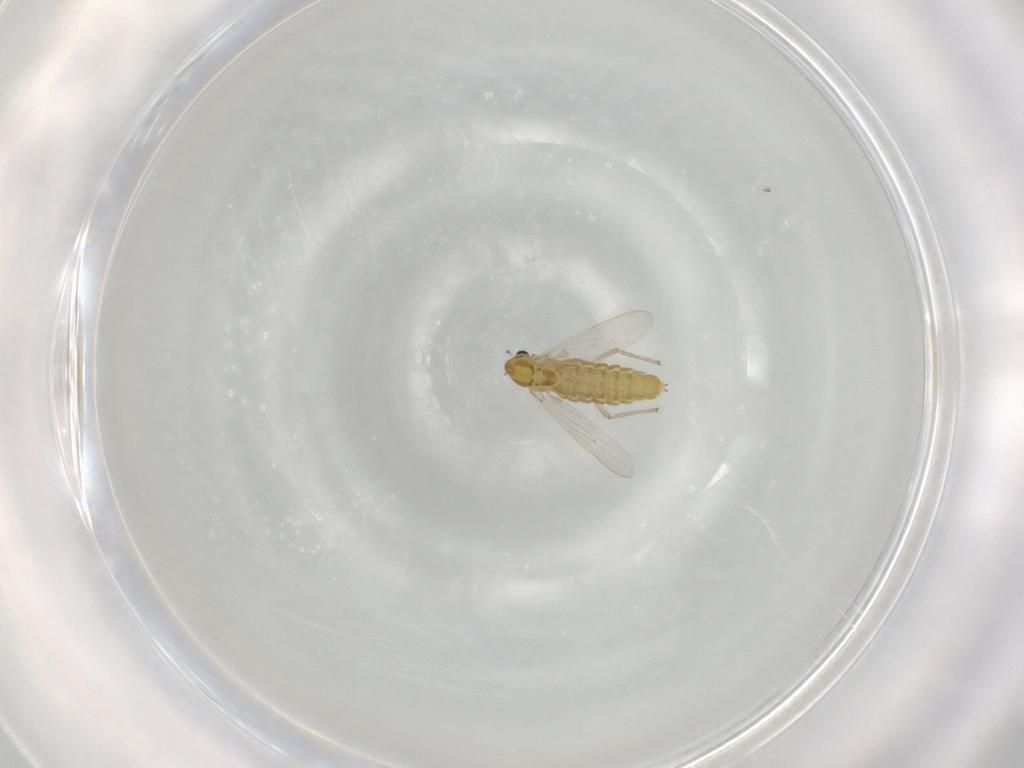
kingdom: Animalia
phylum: Arthropoda
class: Insecta
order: Diptera
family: Chironomidae
